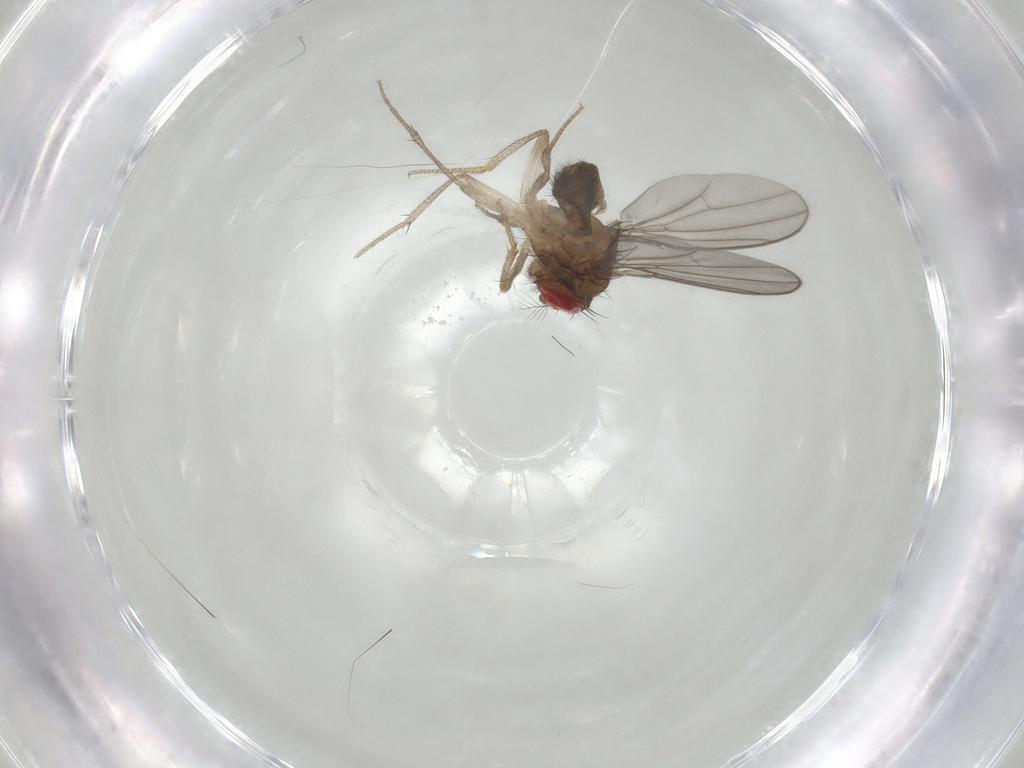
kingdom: Animalia
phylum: Arthropoda
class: Insecta
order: Diptera
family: Drosophilidae
